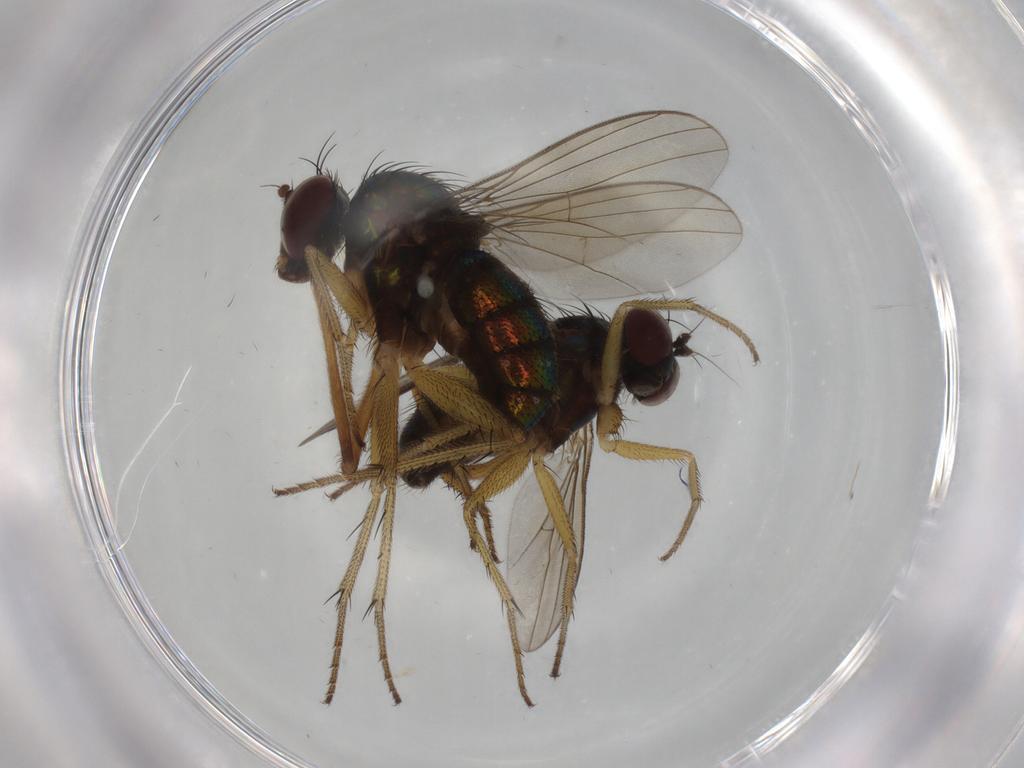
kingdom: Animalia
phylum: Arthropoda
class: Insecta
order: Diptera
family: Dolichopodidae
